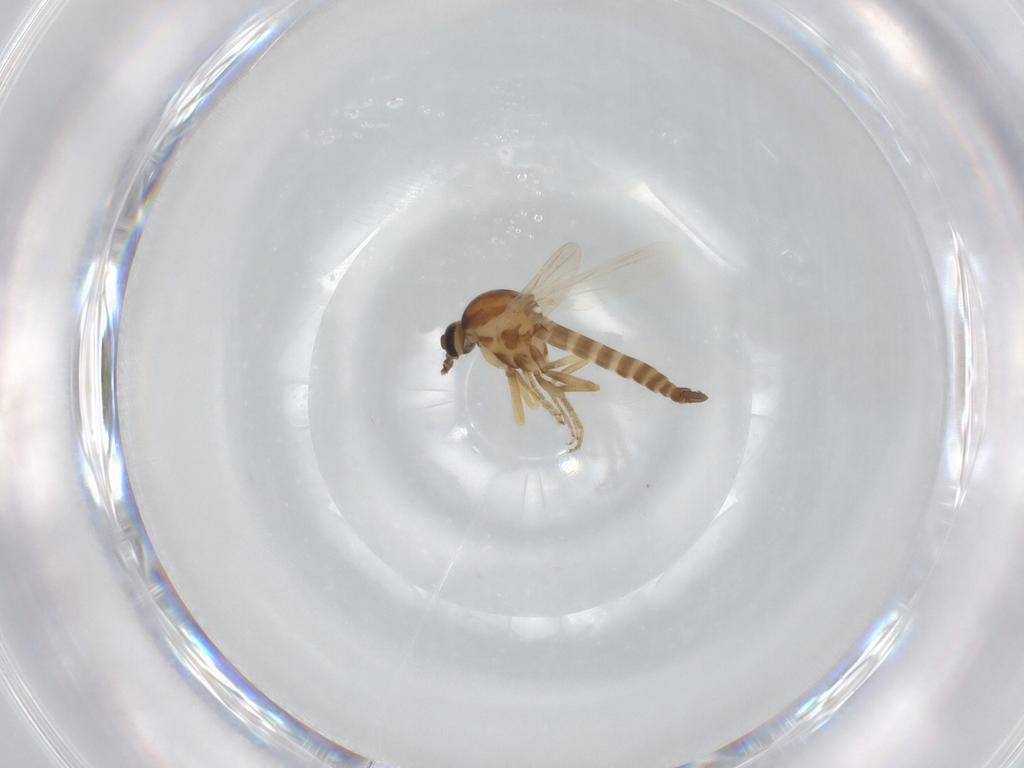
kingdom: Animalia
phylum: Arthropoda
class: Insecta
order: Diptera
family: Ceratopogonidae
